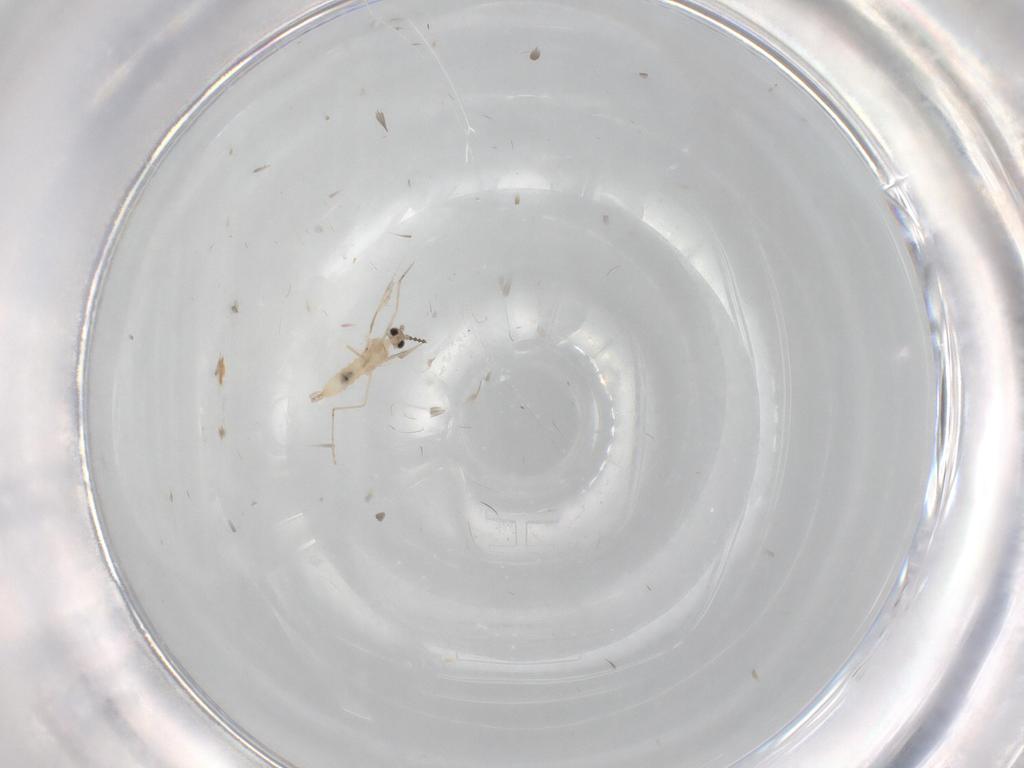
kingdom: Animalia
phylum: Arthropoda
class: Insecta
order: Diptera
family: Cecidomyiidae
